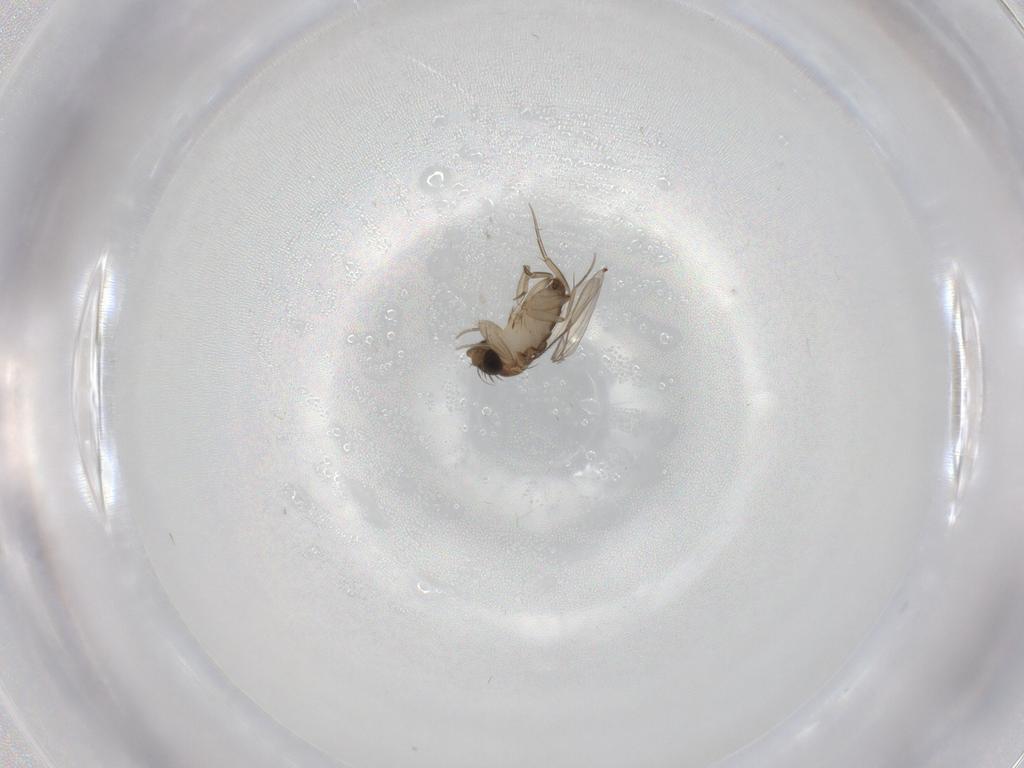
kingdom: Animalia
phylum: Arthropoda
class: Insecta
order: Diptera
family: Phoridae
